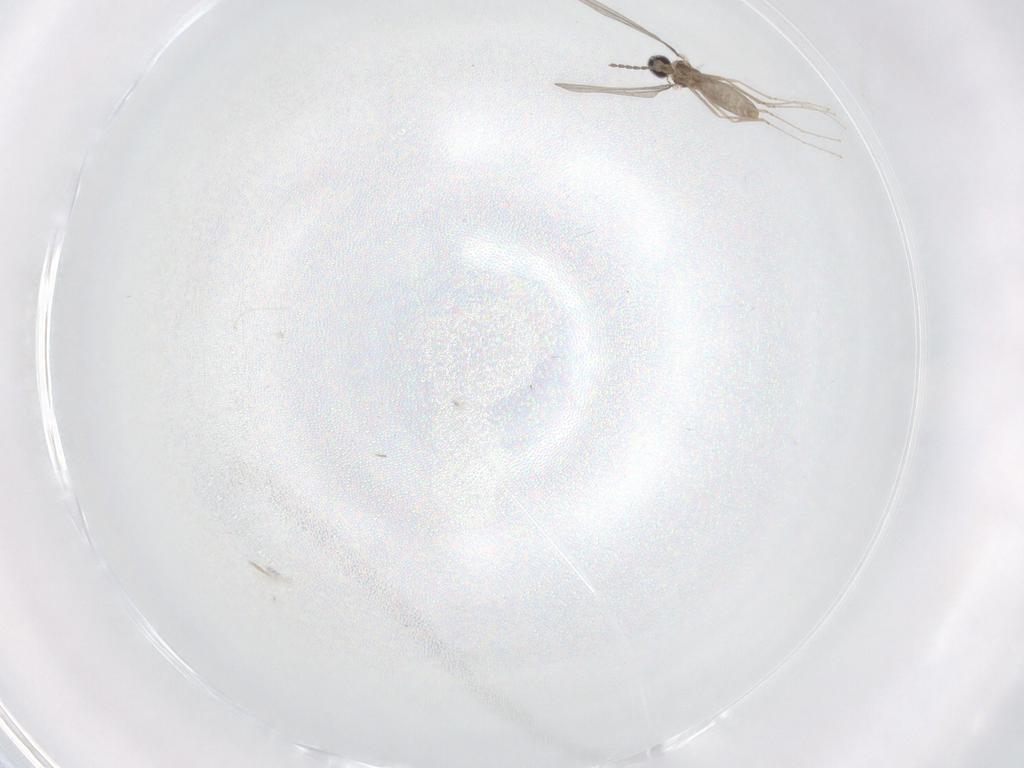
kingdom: Animalia
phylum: Arthropoda
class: Insecta
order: Diptera
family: Cecidomyiidae
